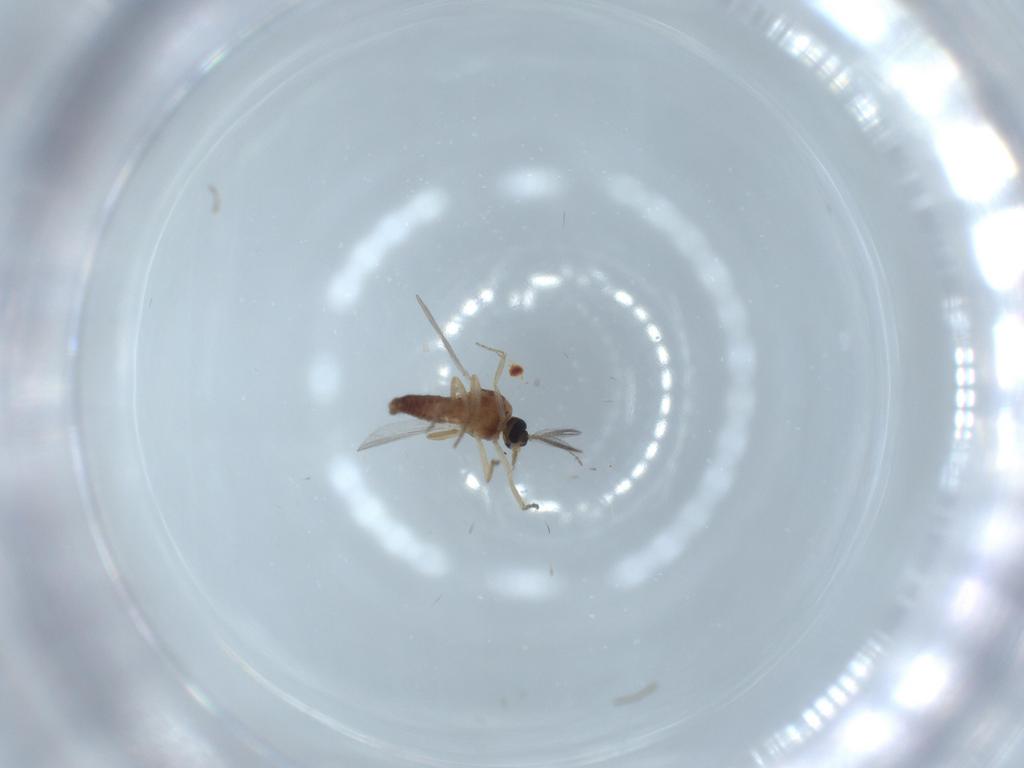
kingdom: Animalia
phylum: Arthropoda
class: Insecta
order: Diptera
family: Ceratopogonidae
